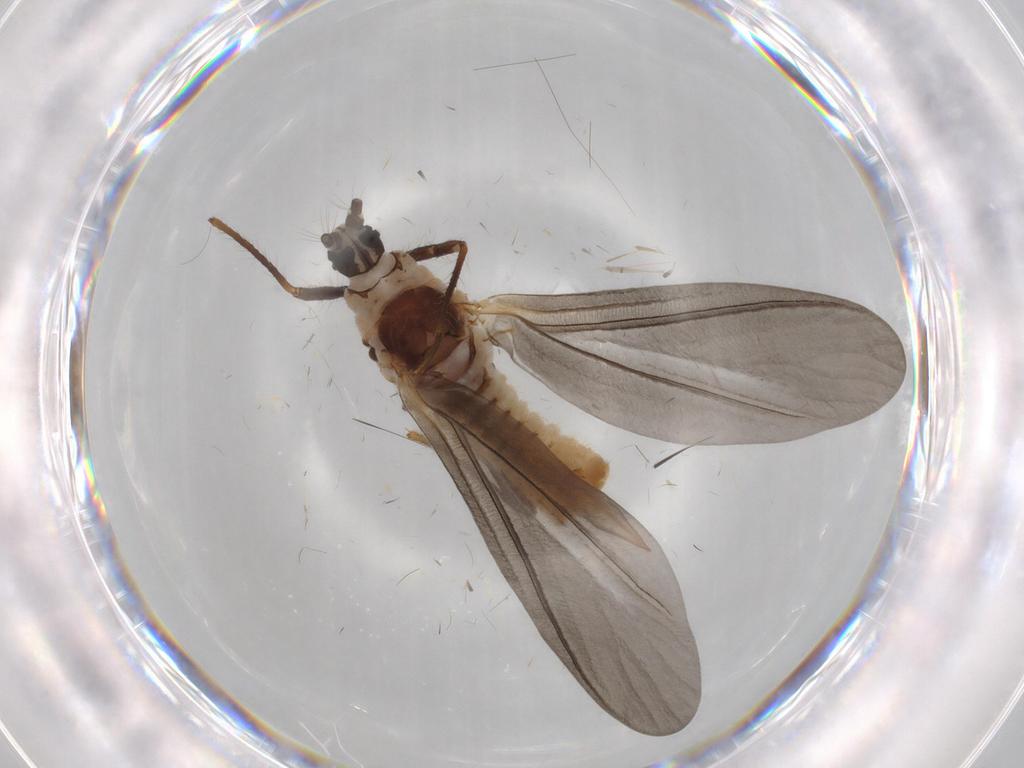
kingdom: Animalia
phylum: Arthropoda
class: Insecta
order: Hemiptera
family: Putoidae
